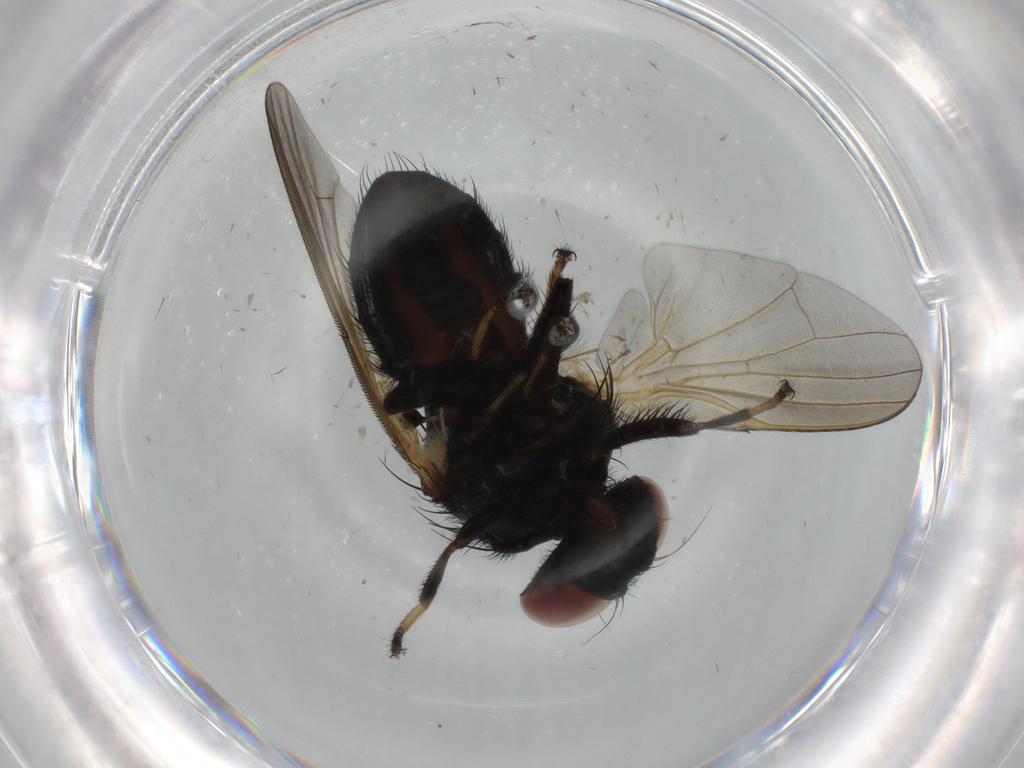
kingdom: Animalia
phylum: Arthropoda
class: Insecta
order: Diptera
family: Lonchaeidae
